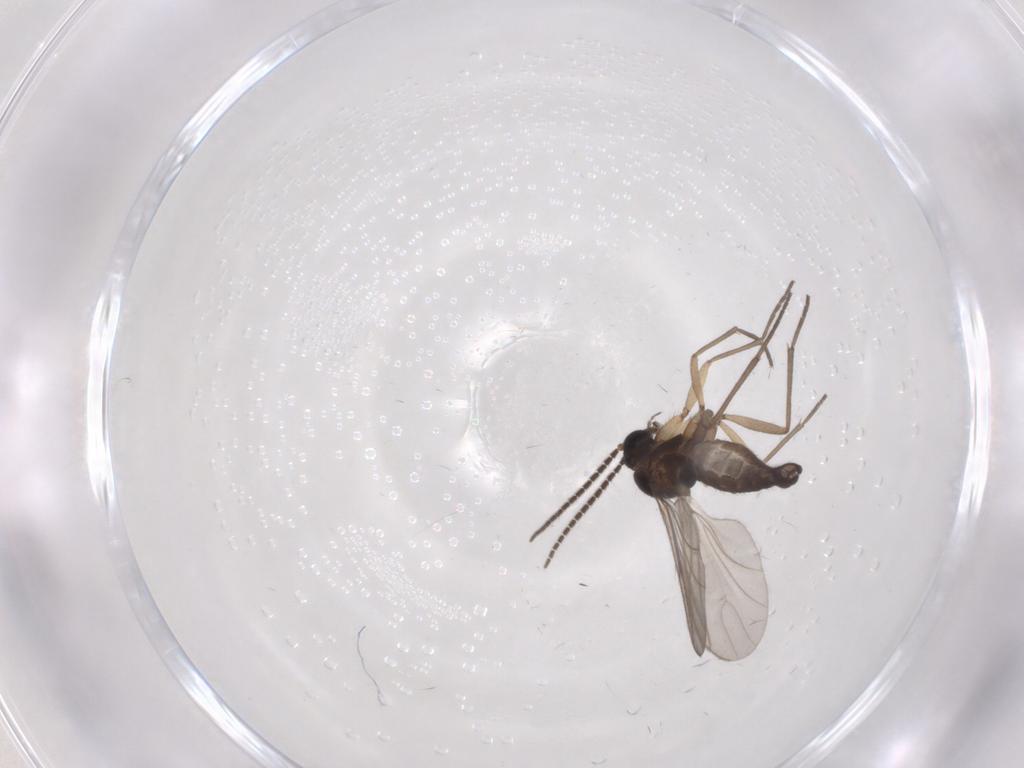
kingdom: Animalia
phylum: Arthropoda
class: Insecta
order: Diptera
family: Sciaridae
